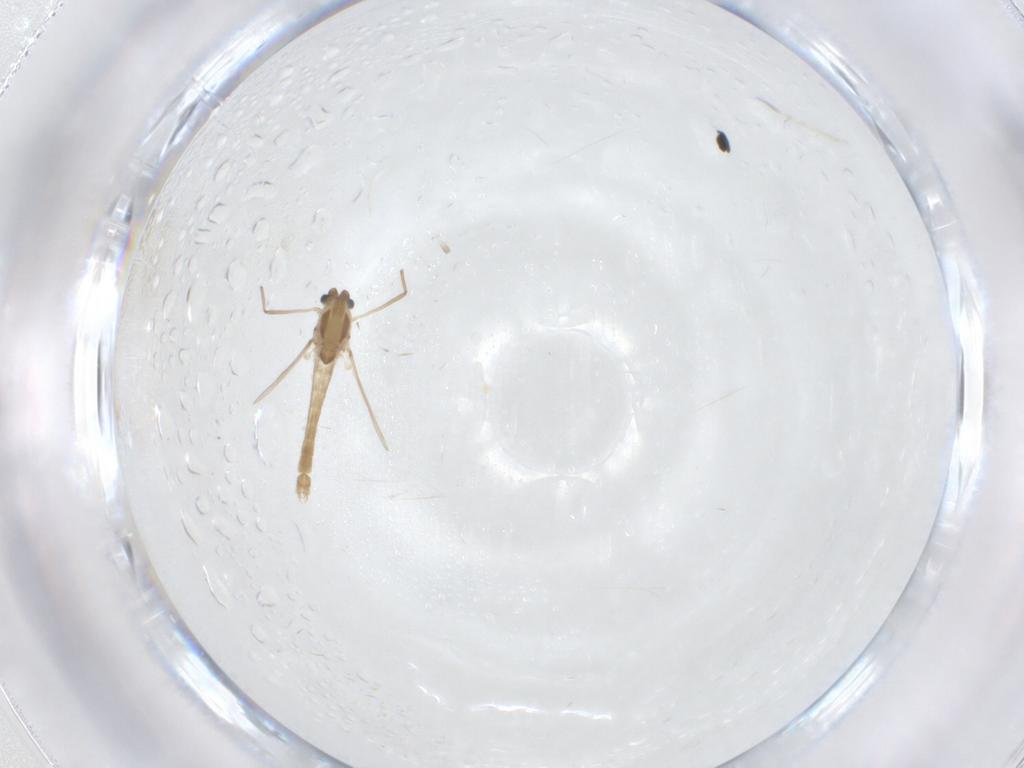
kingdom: Animalia
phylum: Arthropoda
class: Insecta
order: Diptera
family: Chironomidae
